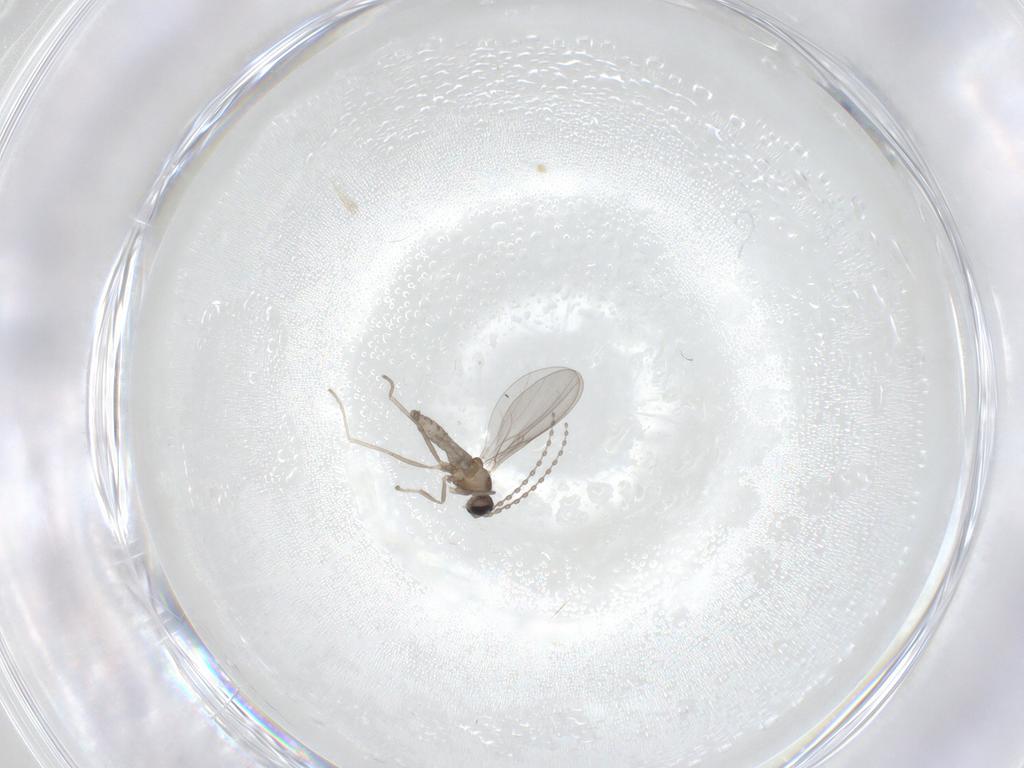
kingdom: Animalia
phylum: Arthropoda
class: Insecta
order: Diptera
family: Cecidomyiidae
